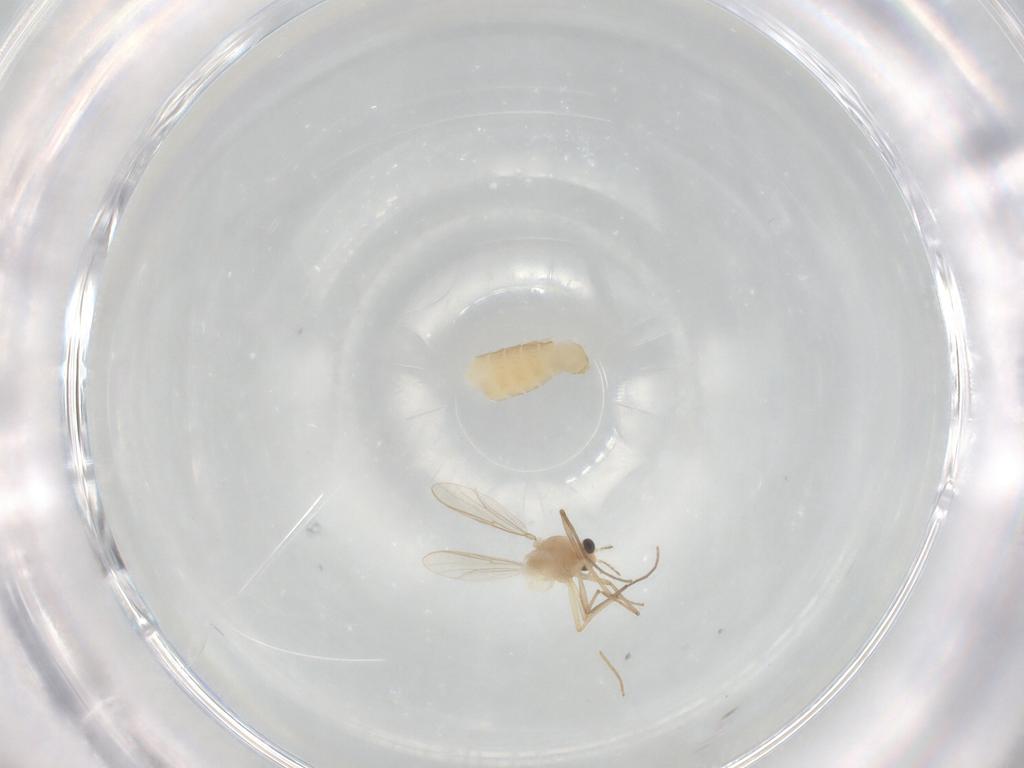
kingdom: Animalia
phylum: Arthropoda
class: Insecta
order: Diptera
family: Chironomidae
